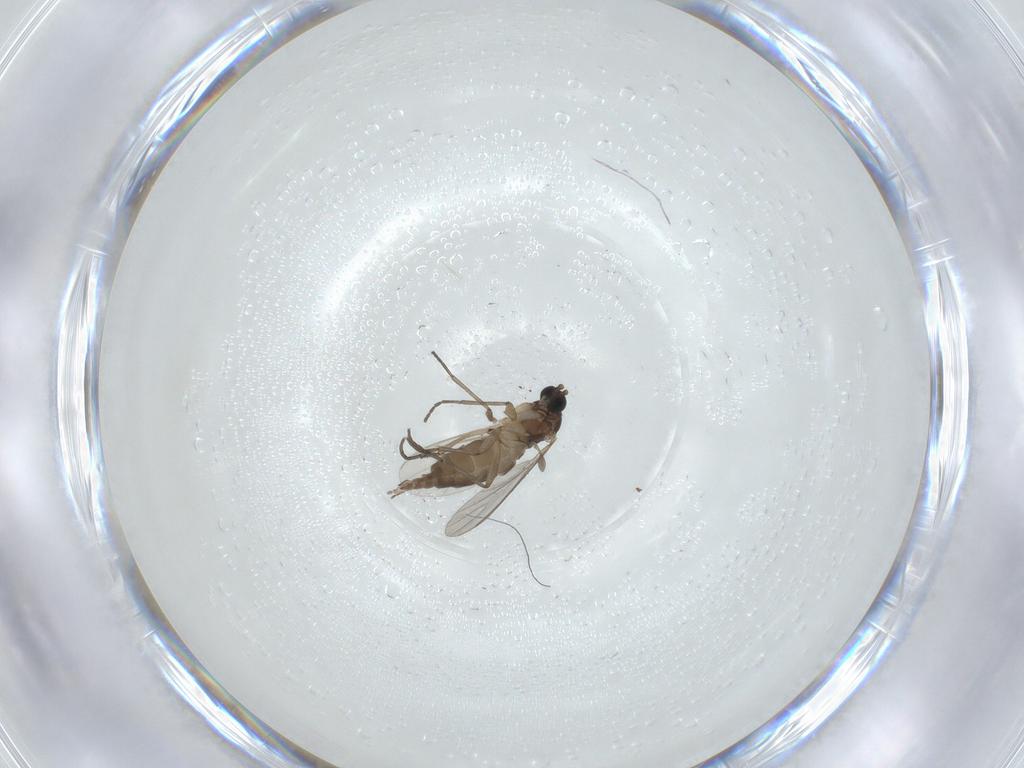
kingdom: Animalia
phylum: Arthropoda
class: Insecta
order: Diptera
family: Sciaridae
